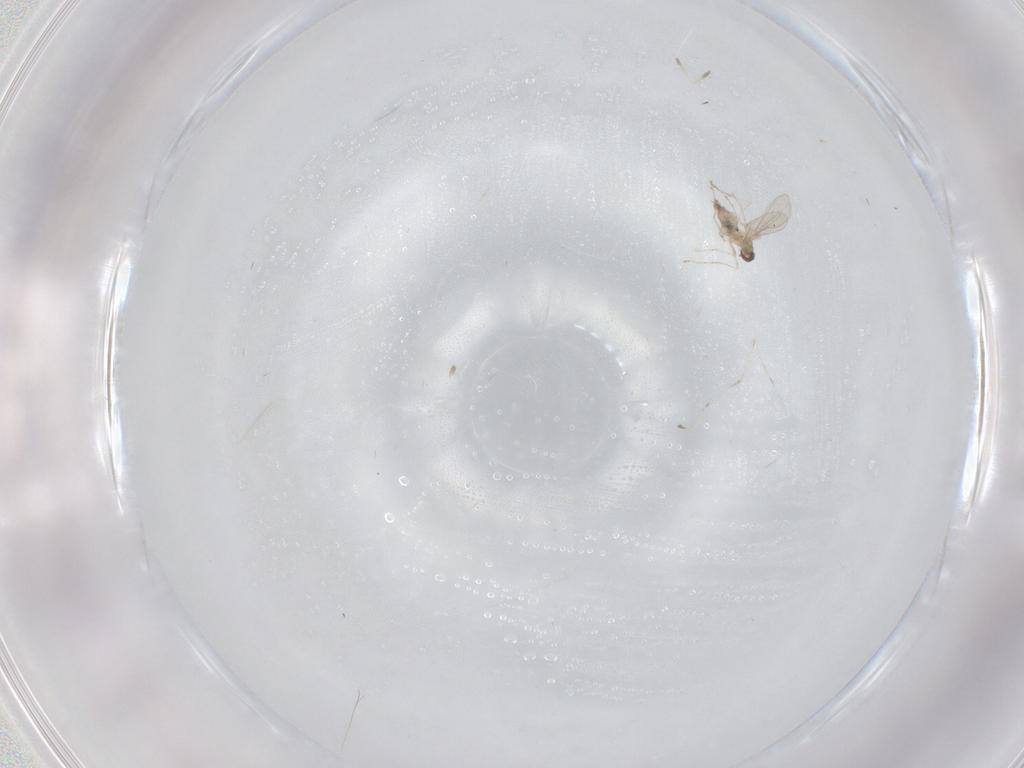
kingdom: Animalia
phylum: Arthropoda
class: Insecta
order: Diptera
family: Cecidomyiidae
